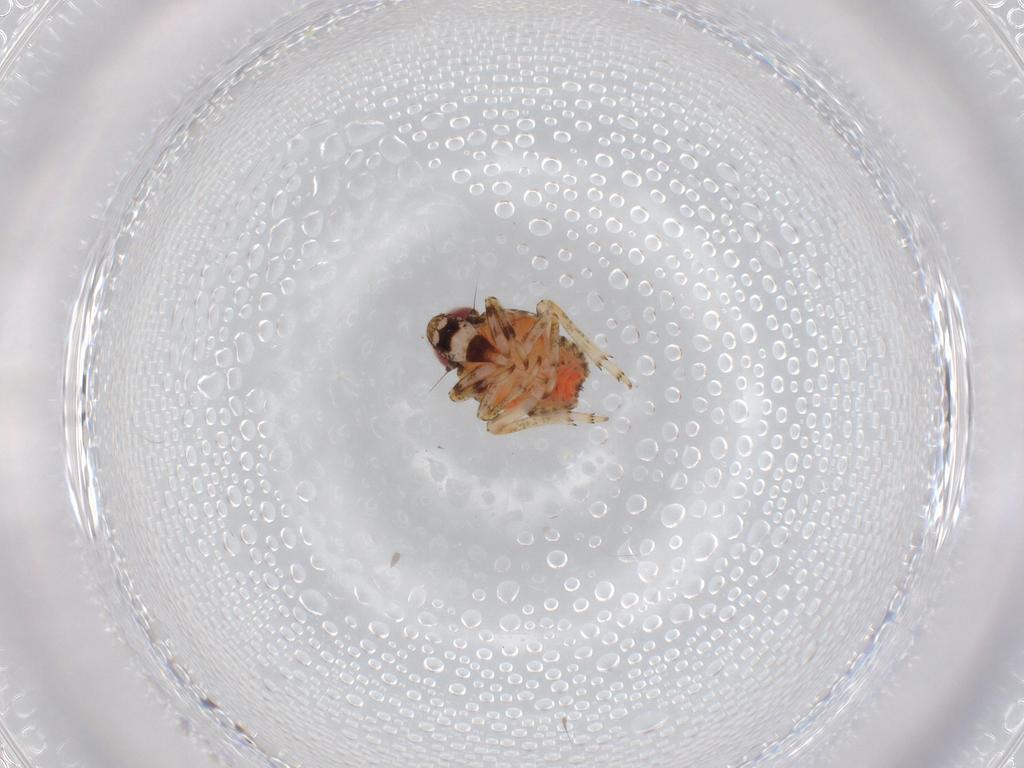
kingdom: Animalia
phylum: Arthropoda
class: Insecta
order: Hemiptera
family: Issidae
